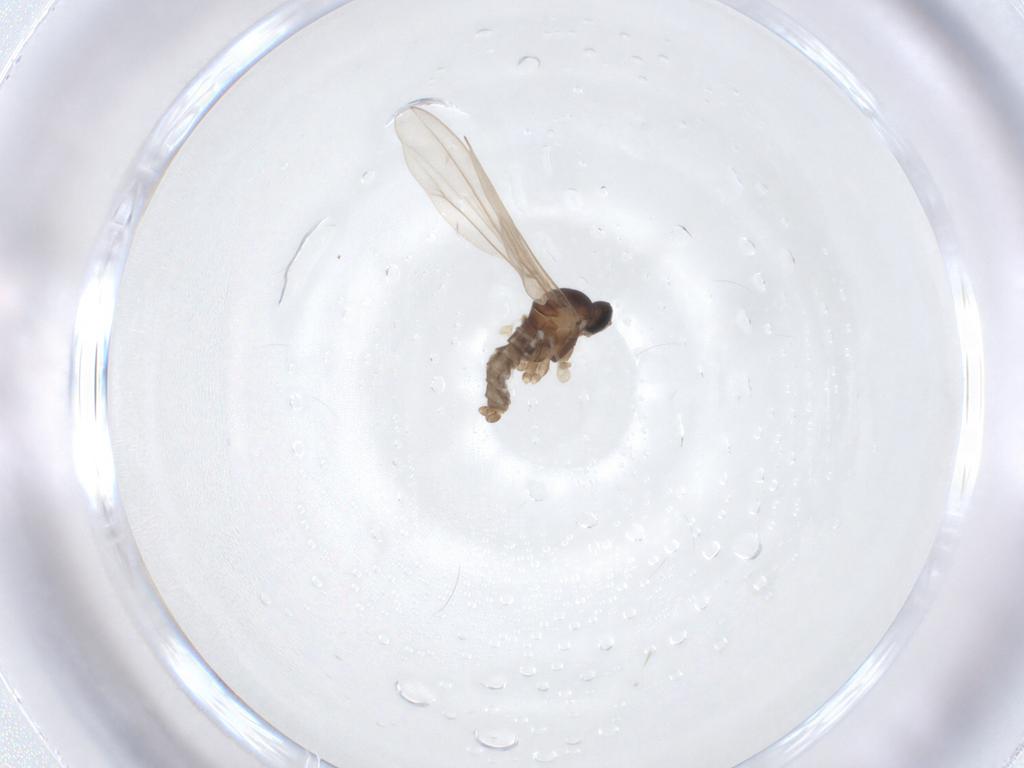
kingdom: Animalia
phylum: Arthropoda
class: Insecta
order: Diptera
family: Cecidomyiidae
